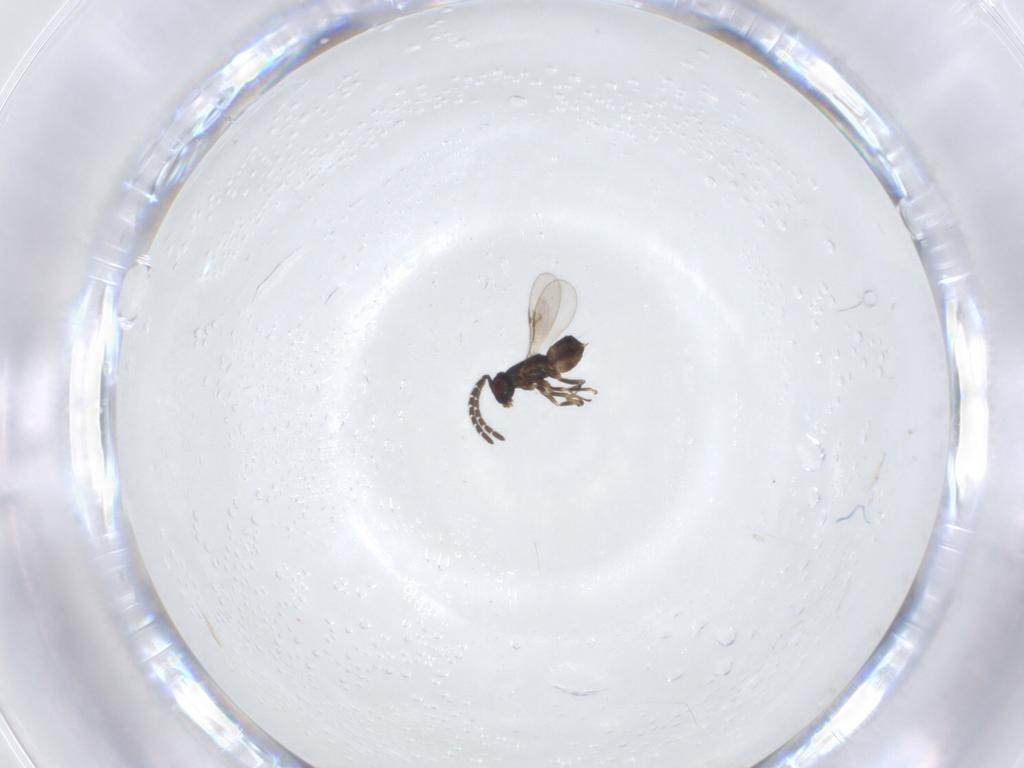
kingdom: Animalia
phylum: Arthropoda
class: Insecta
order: Hymenoptera
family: Encyrtidae
